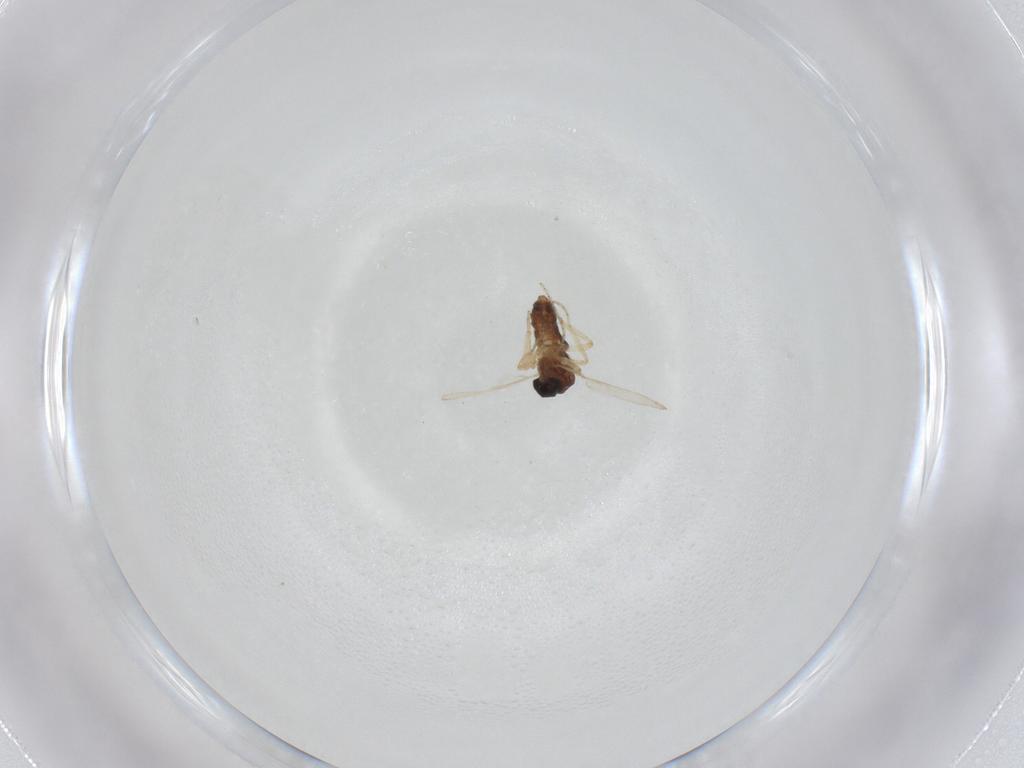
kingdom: Animalia
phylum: Arthropoda
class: Insecta
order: Diptera
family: Ceratopogonidae
